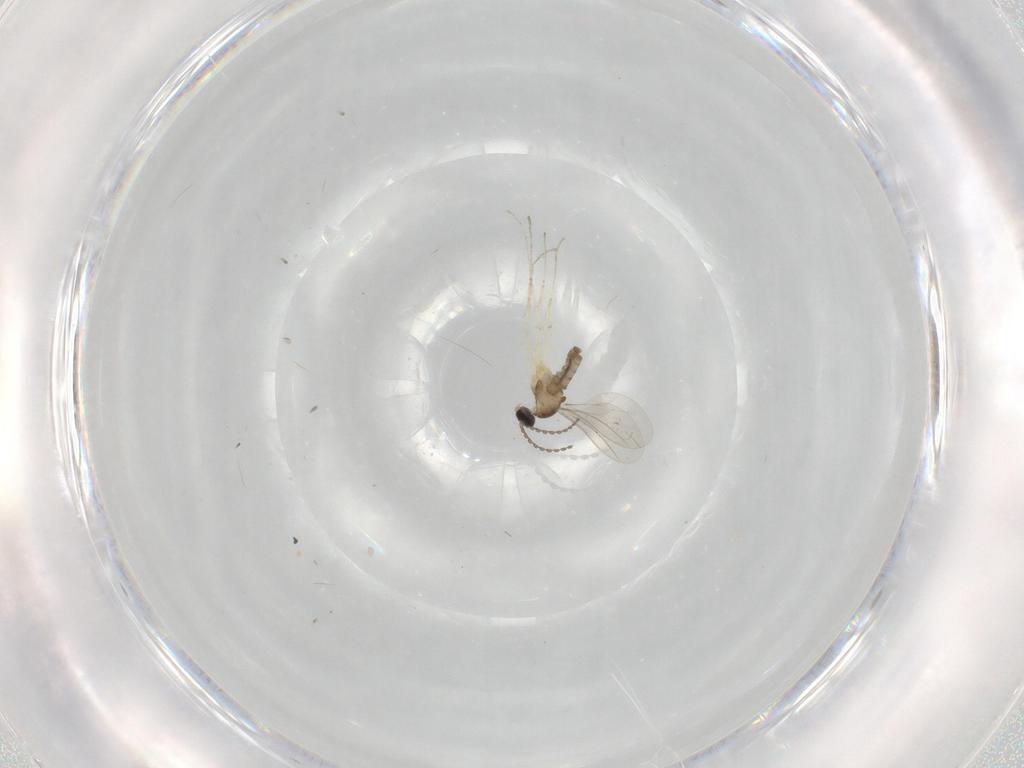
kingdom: Animalia
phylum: Arthropoda
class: Insecta
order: Diptera
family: Cecidomyiidae
